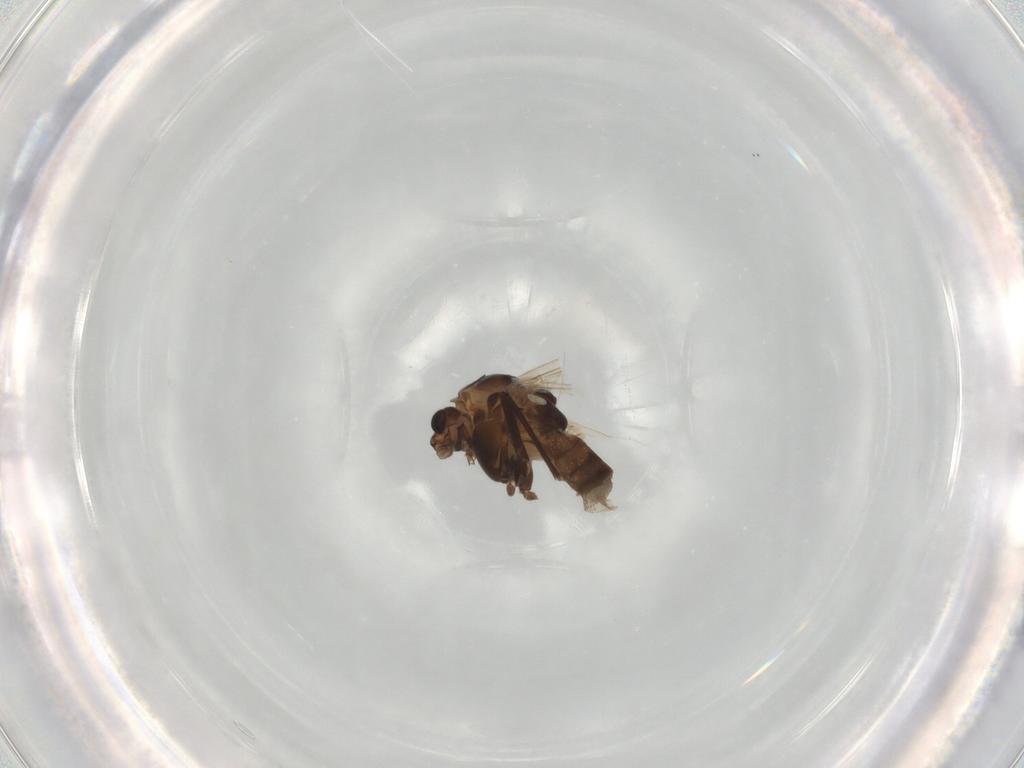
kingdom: Animalia
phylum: Arthropoda
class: Insecta
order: Diptera
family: Chironomidae
